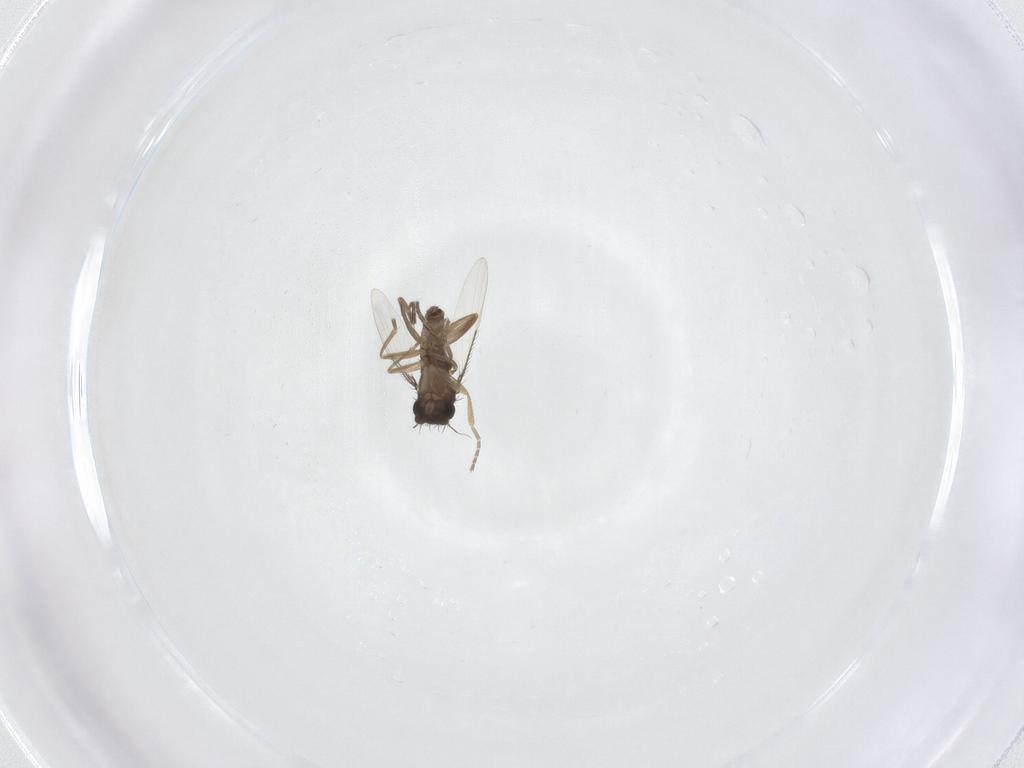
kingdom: Animalia
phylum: Arthropoda
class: Insecta
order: Diptera
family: Phoridae
